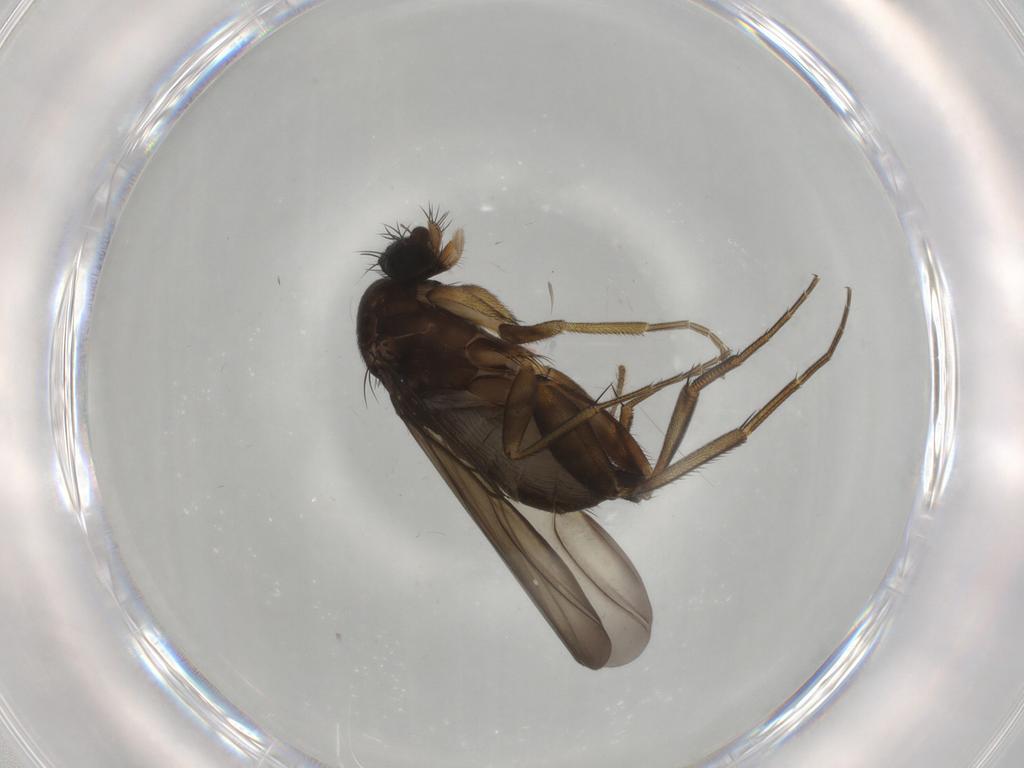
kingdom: Animalia
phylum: Arthropoda
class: Insecta
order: Diptera
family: Phoridae
